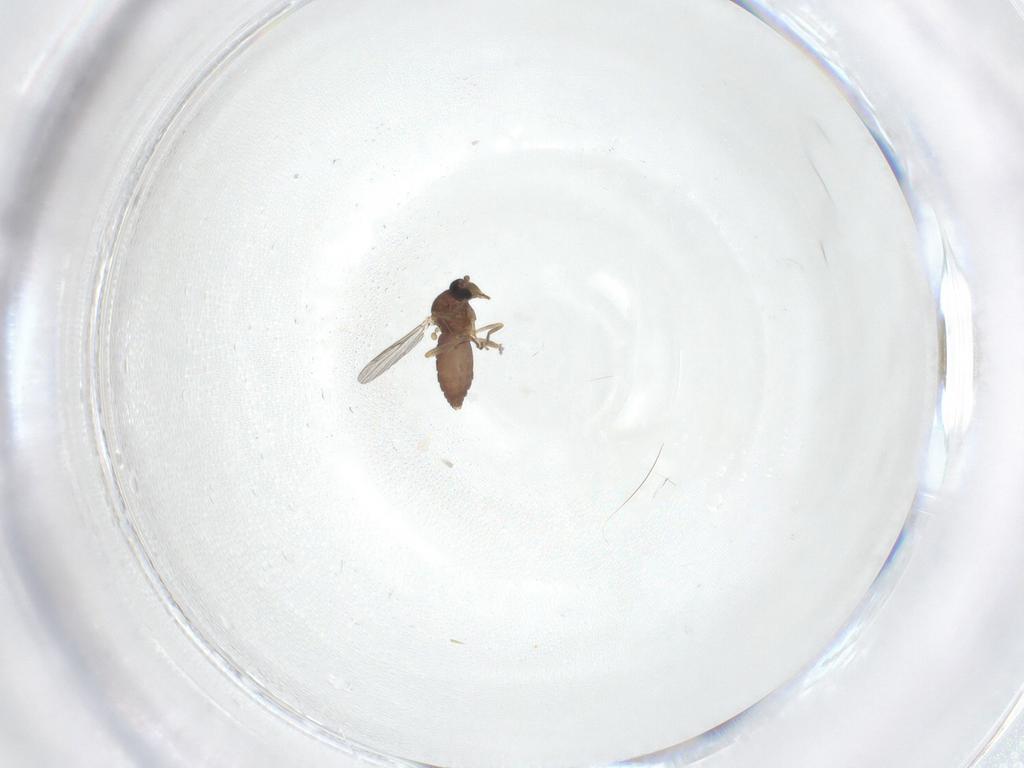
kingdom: Animalia
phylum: Arthropoda
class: Insecta
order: Diptera
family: Ceratopogonidae
